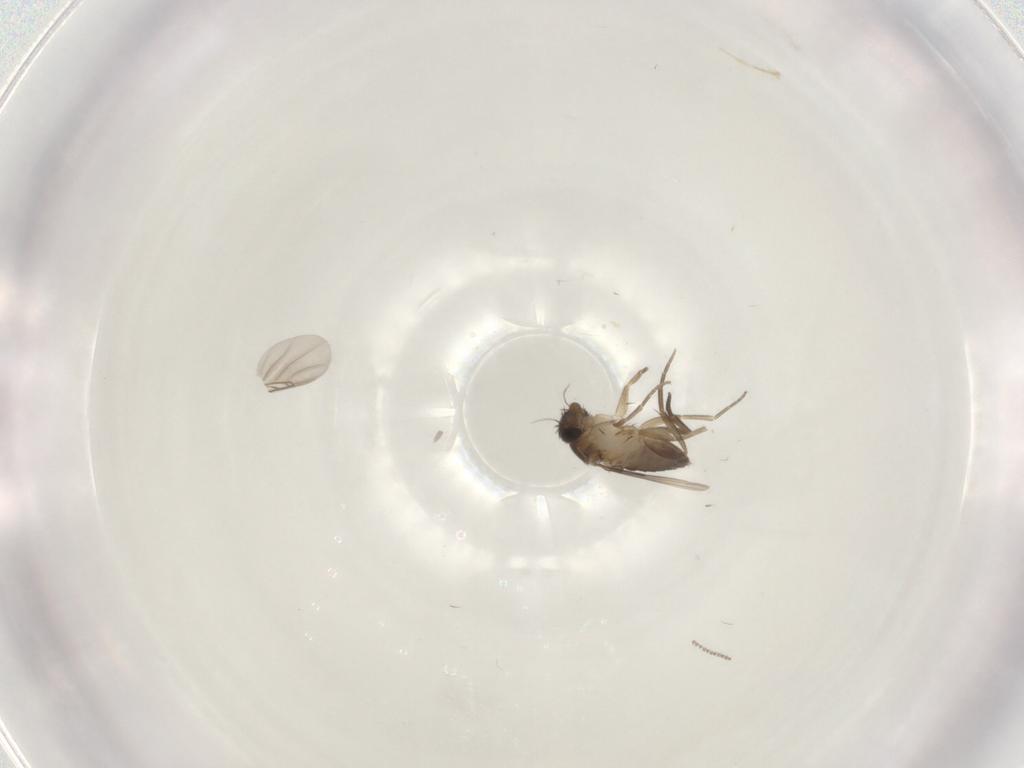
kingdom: Animalia
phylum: Arthropoda
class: Insecta
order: Diptera
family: Phoridae
